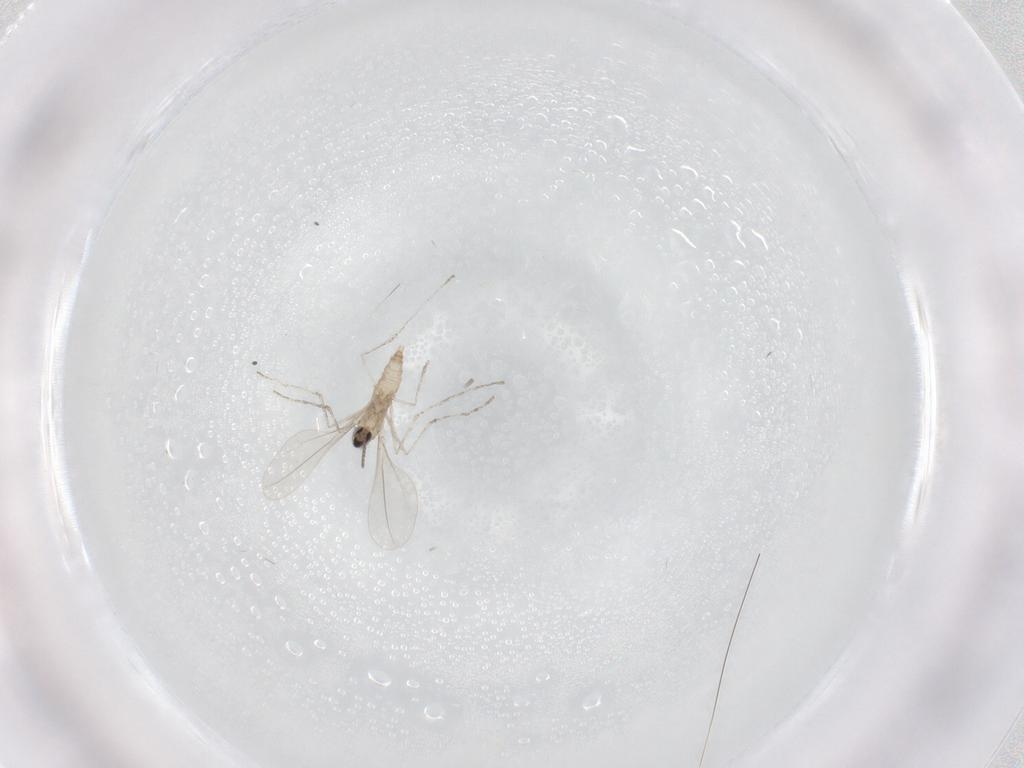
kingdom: Animalia
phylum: Arthropoda
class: Insecta
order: Diptera
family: Cecidomyiidae
